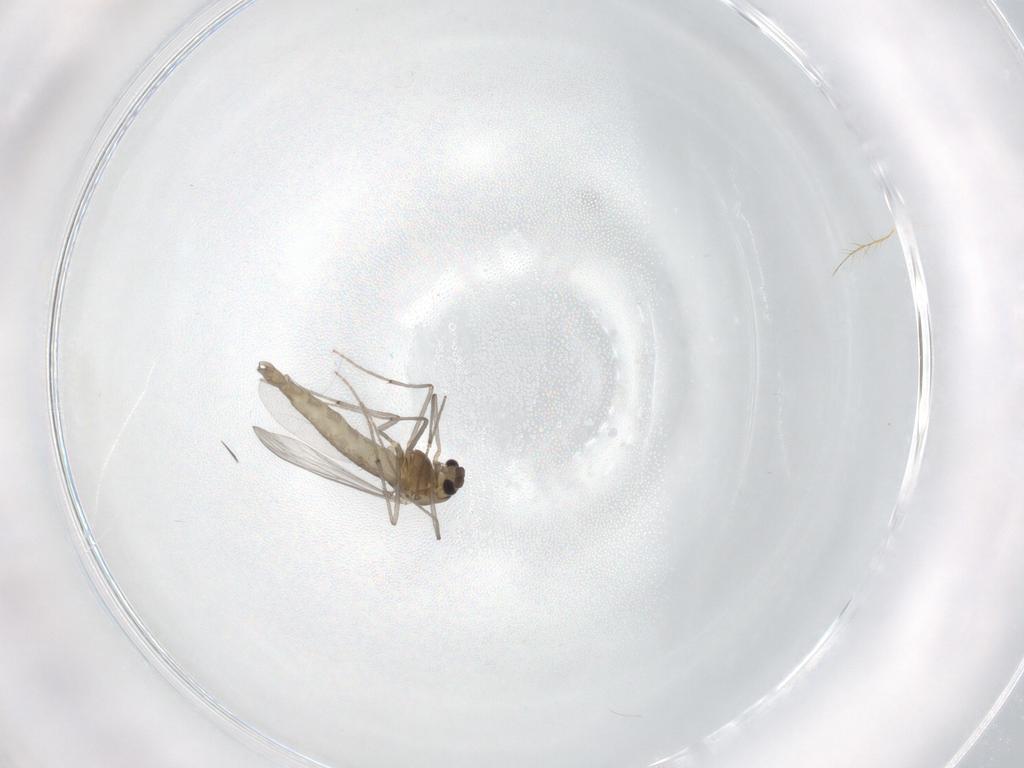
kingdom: Animalia
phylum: Arthropoda
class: Insecta
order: Diptera
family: Chironomidae
